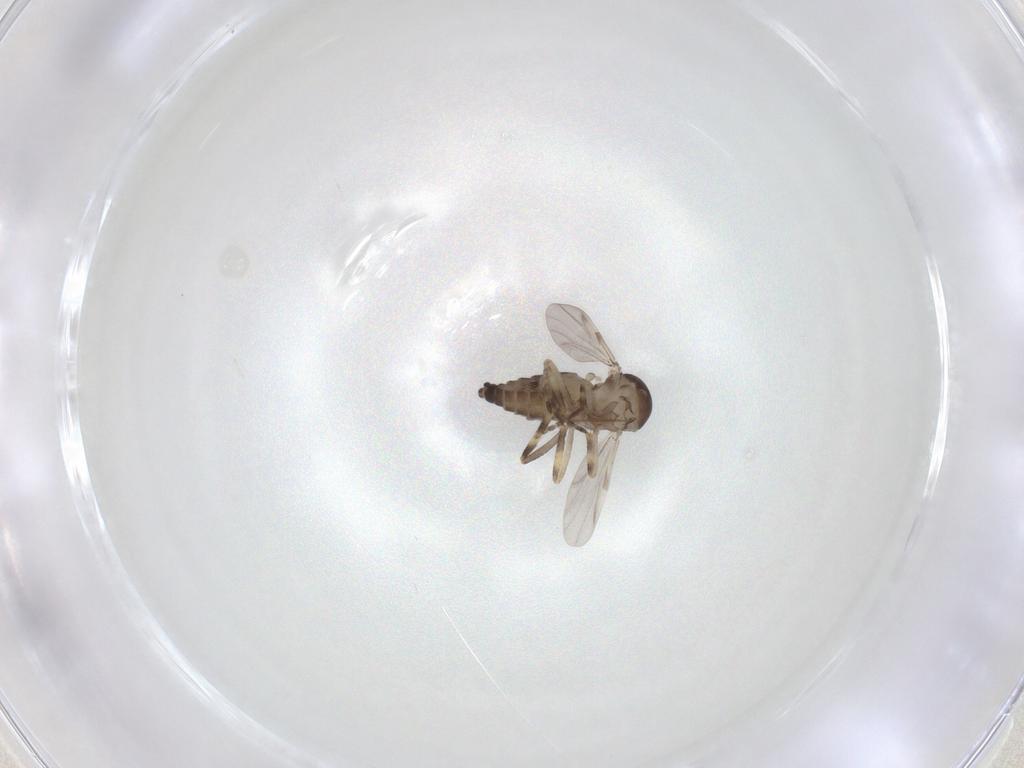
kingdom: Animalia
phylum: Arthropoda
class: Insecta
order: Diptera
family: Ceratopogonidae
